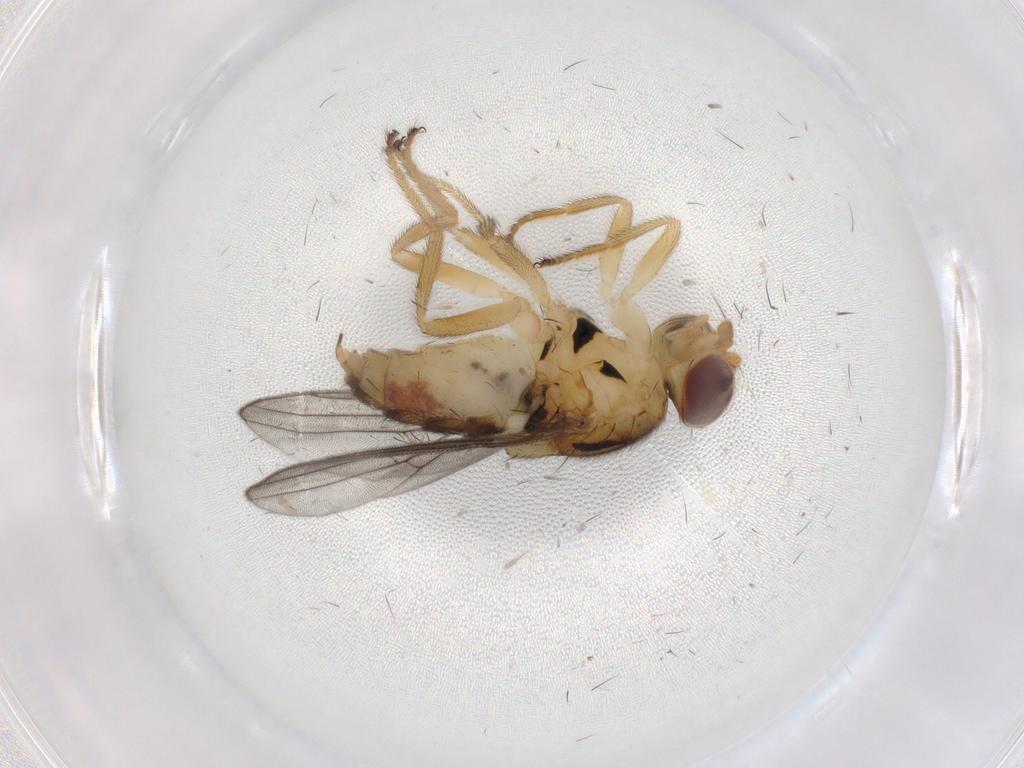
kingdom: Animalia
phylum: Arthropoda
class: Insecta
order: Diptera
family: Chloropidae
